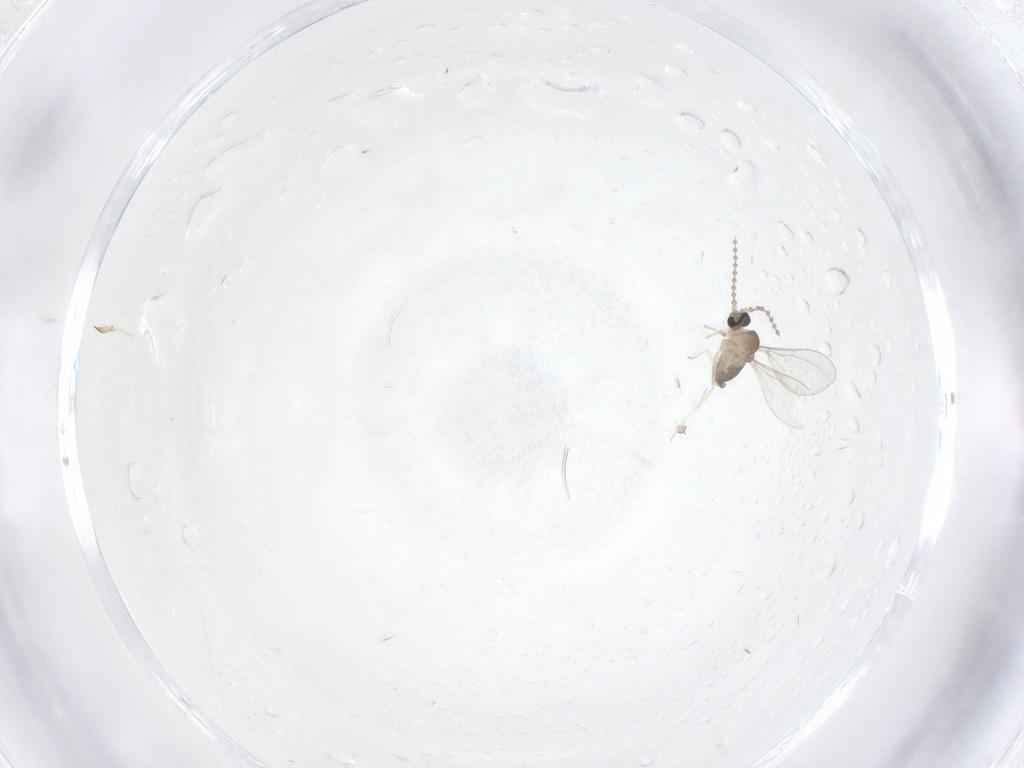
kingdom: Animalia
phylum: Arthropoda
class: Insecta
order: Diptera
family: Cecidomyiidae
